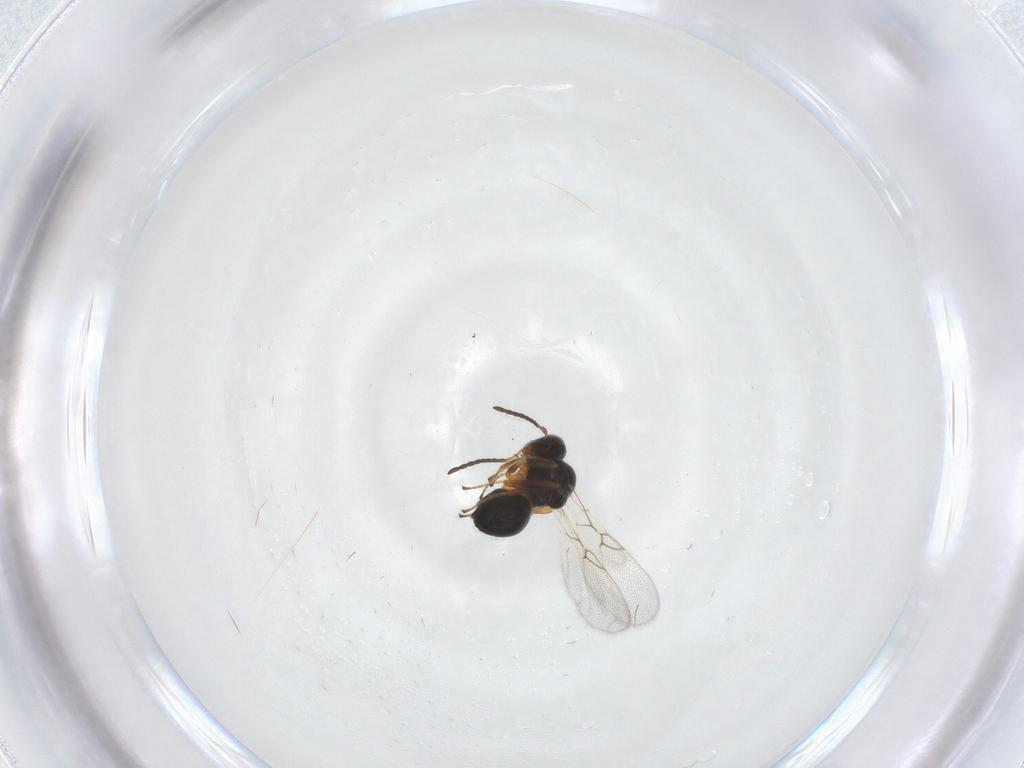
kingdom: Animalia
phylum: Arthropoda
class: Insecta
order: Hymenoptera
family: Figitidae
